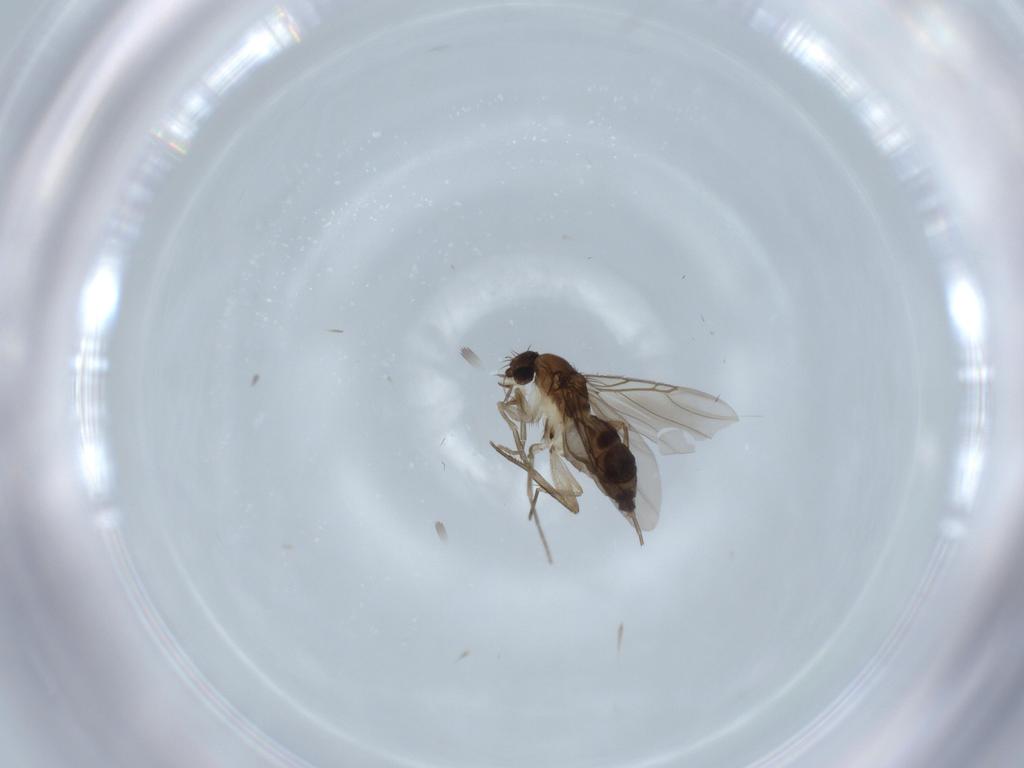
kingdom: Animalia
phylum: Arthropoda
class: Insecta
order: Diptera
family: Phoridae
